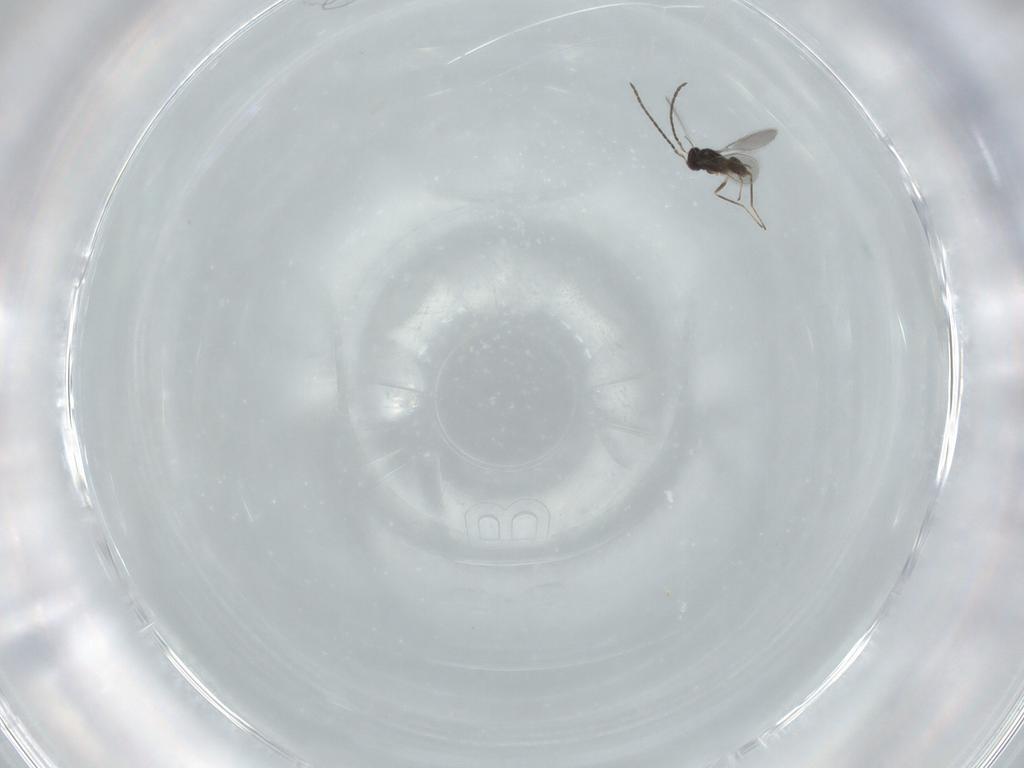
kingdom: Animalia
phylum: Arthropoda
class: Insecta
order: Hymenoptera
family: Mymaridae
